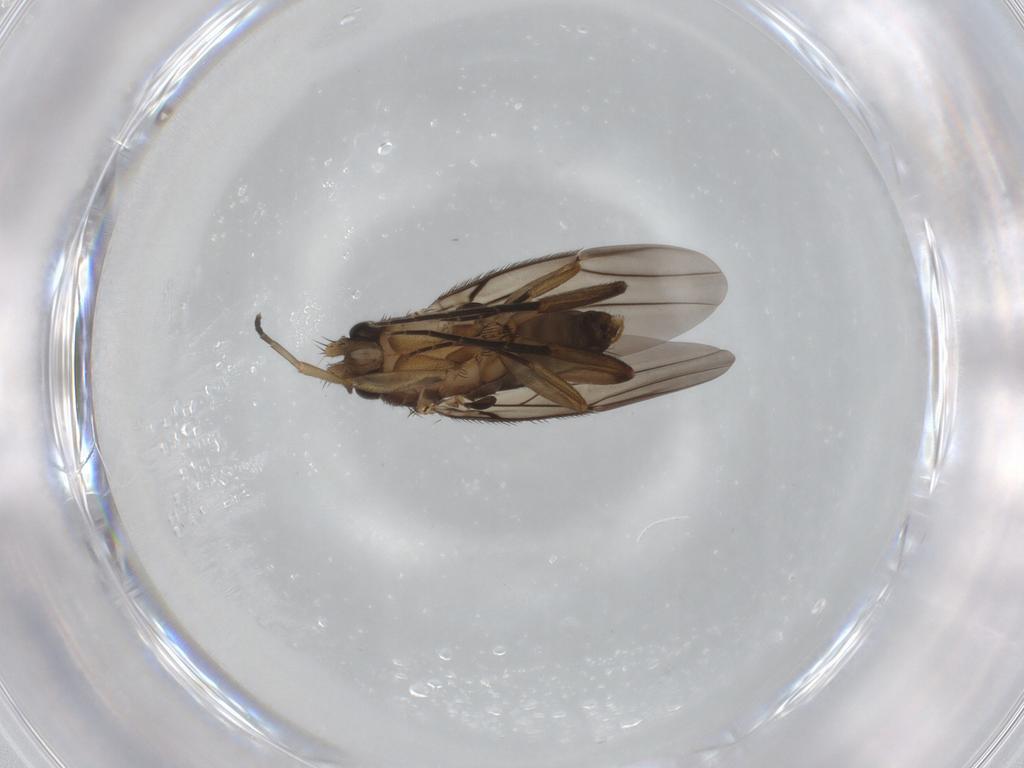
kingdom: Animalia
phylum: Arthropoda
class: Insecta
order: Diptera
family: Phoridae
